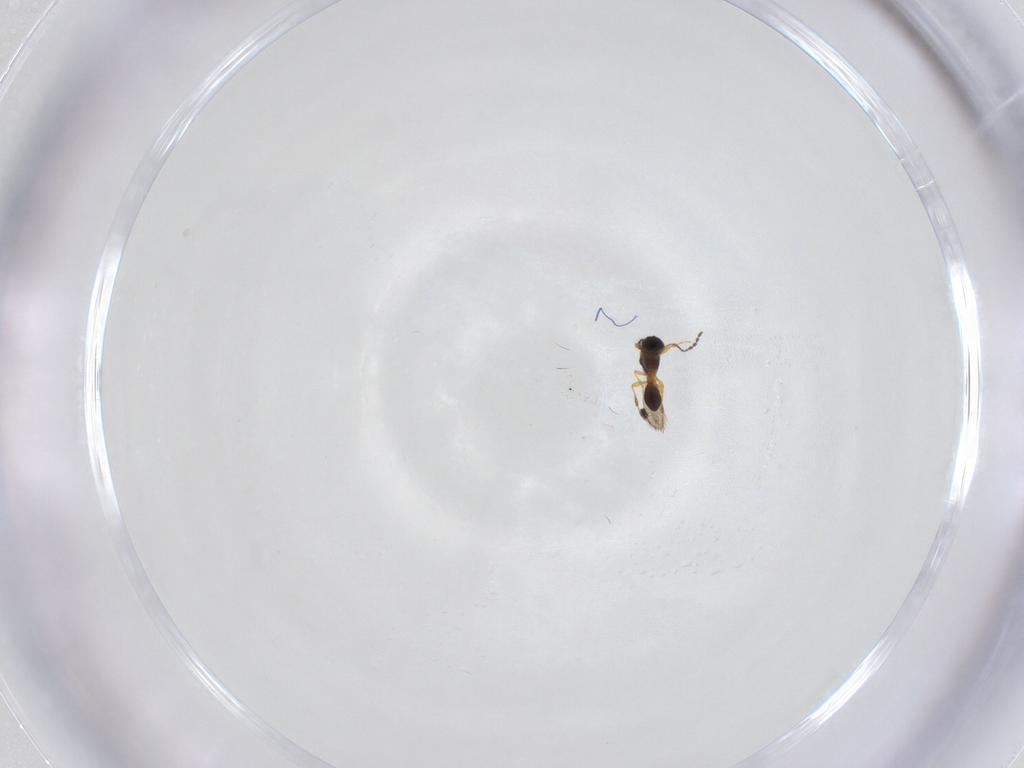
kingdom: Animalia
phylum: Arthropoda
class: Insecta
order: Hymenoptera
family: Platygastridae
